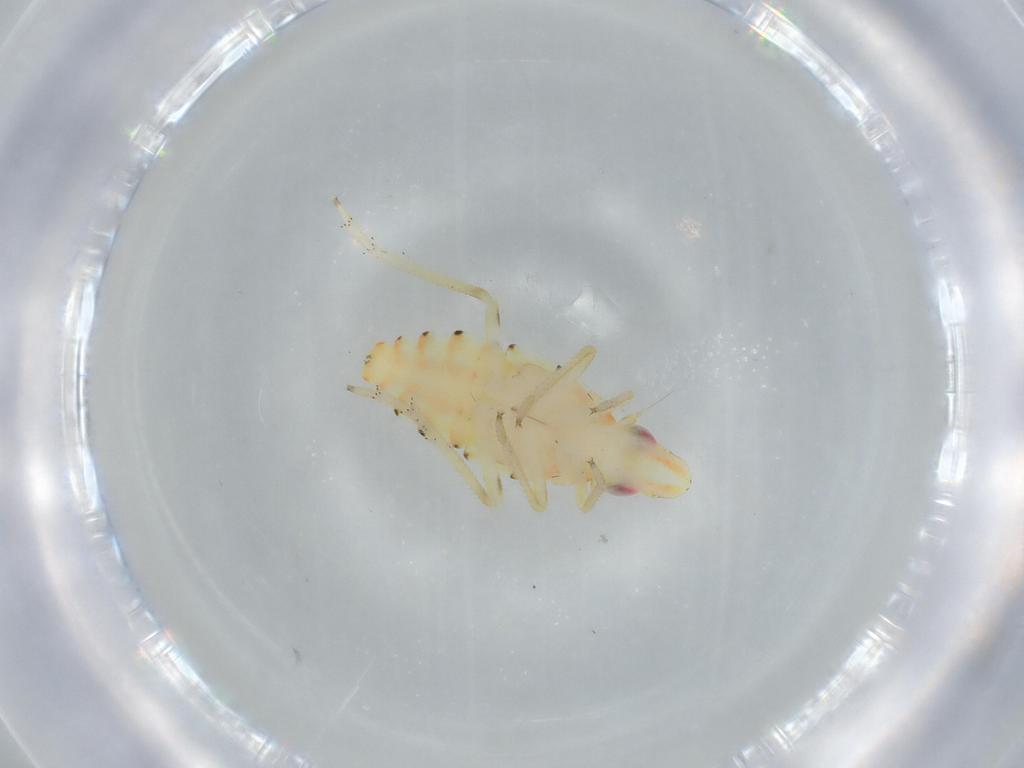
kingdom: Animalia
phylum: Arthropoda
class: Insecta
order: Hemiptera
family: Tropiduchidae
